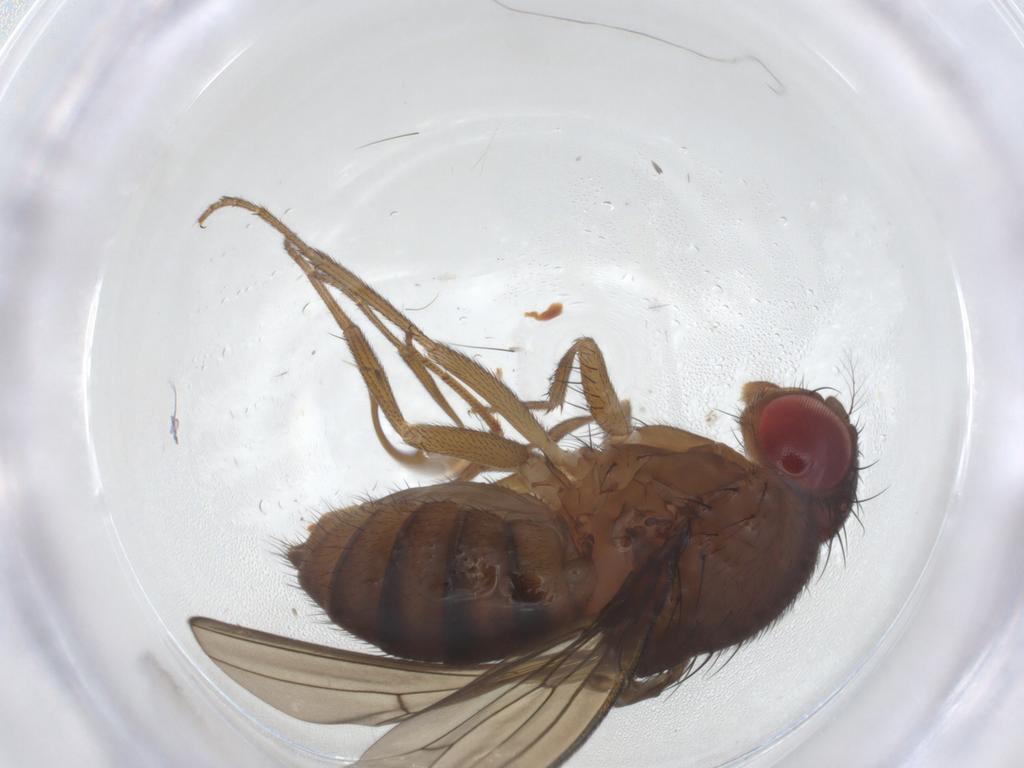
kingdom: Animalia
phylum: Arthropoda
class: Insecta
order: Diptera
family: Drosophilidae
